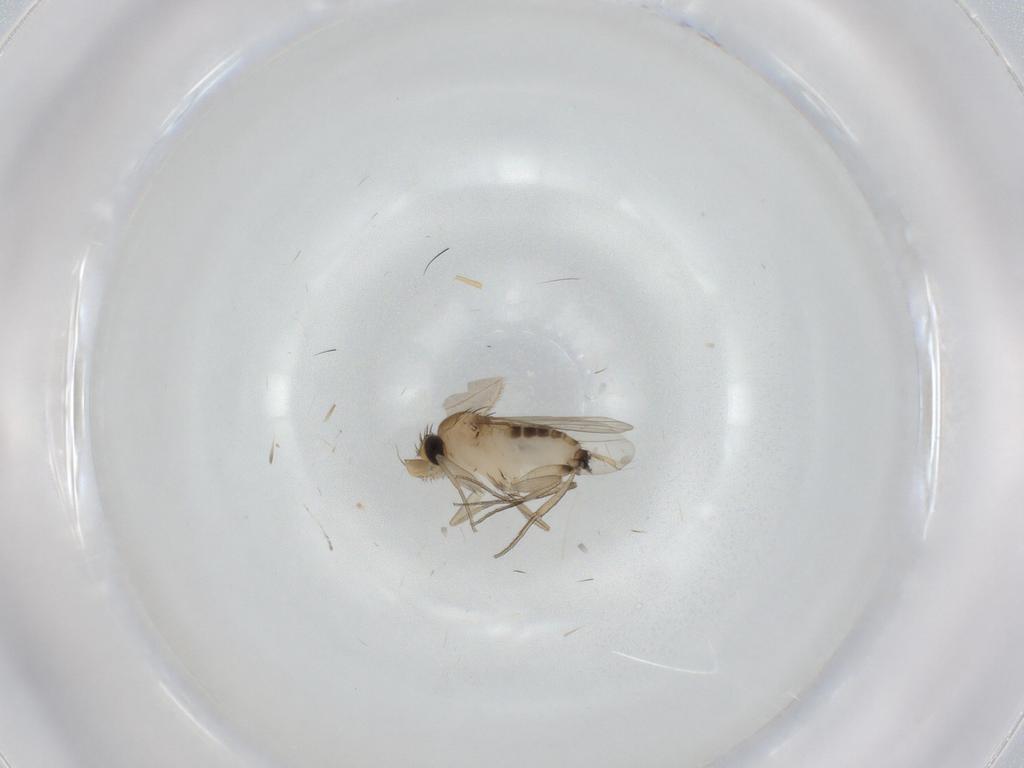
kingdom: Animalia
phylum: Arthropoda
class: Insecta
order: Diptera
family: Phoridae
